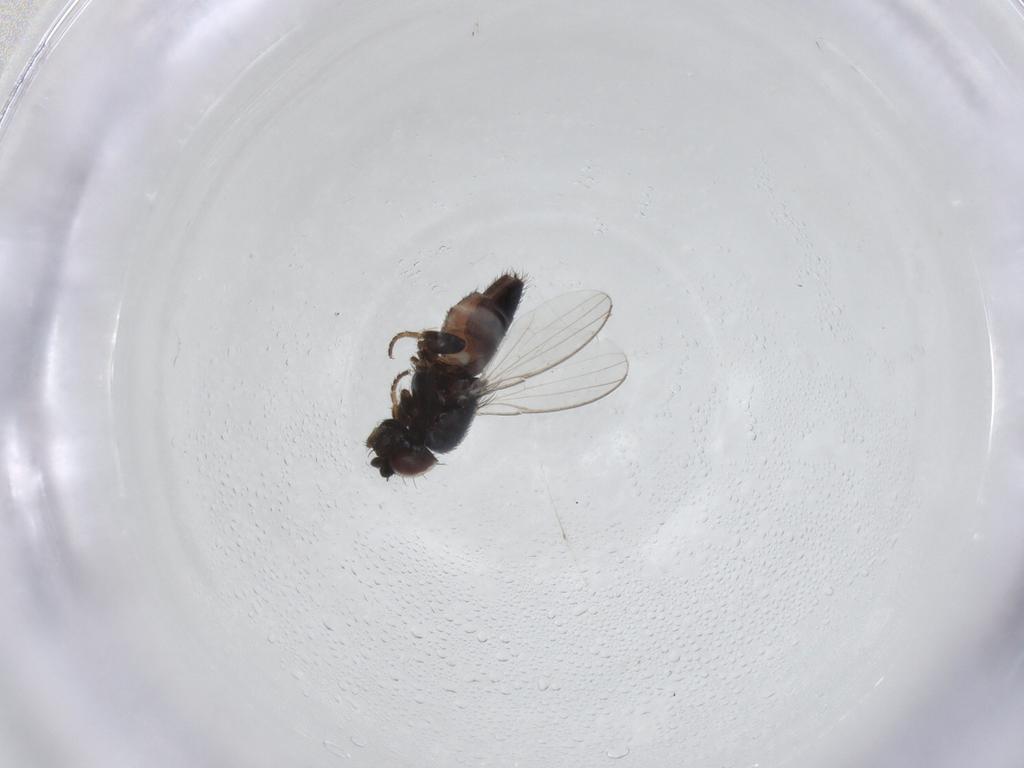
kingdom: Animalia
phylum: Arthropoda
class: Insecta
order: Diptera
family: Milichiidae
